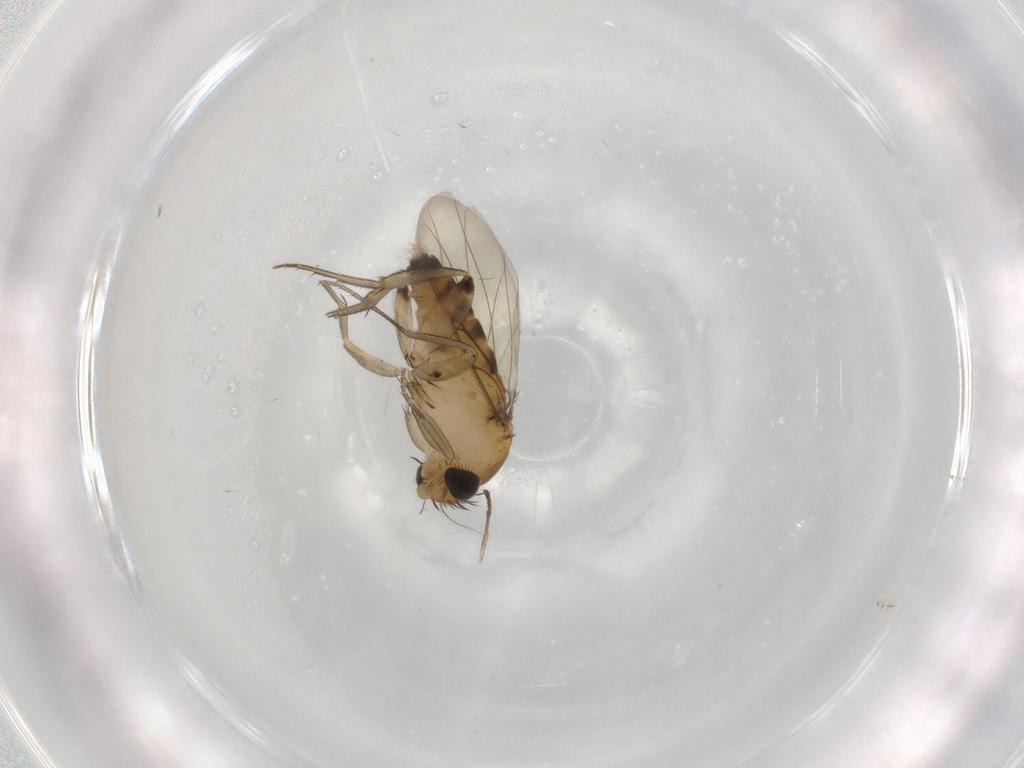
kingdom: Animalia
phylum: Arthropoda
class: Insecta
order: Diptera
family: Phoridae
